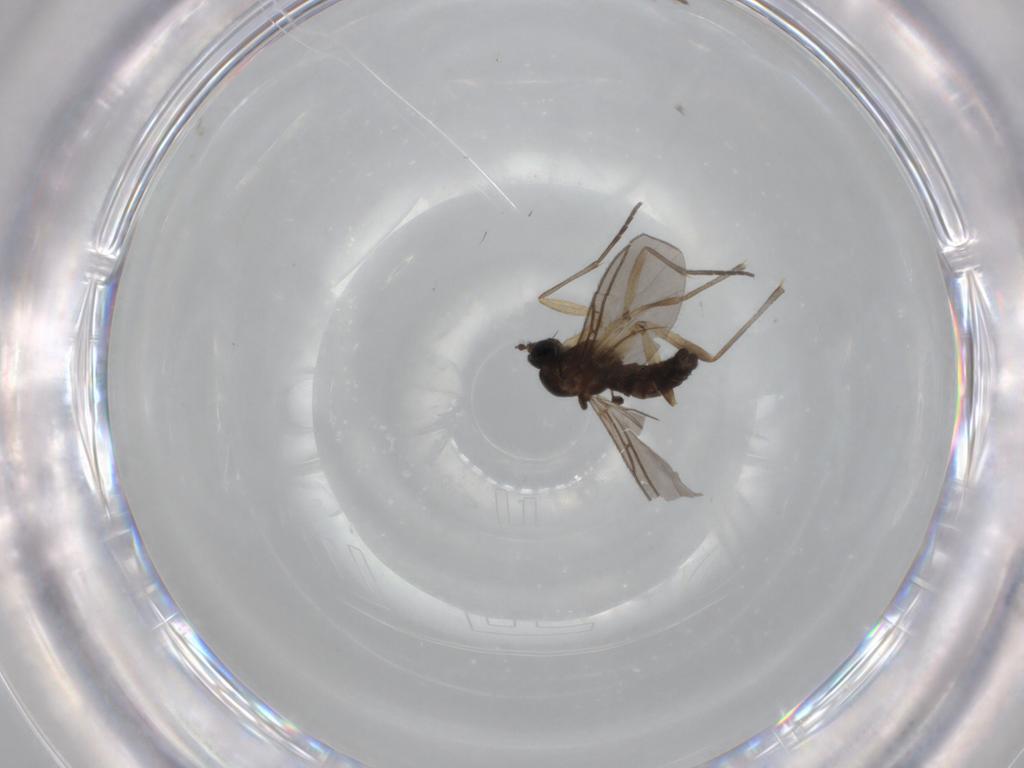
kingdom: Animalia
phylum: Arthropoda
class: Insecta
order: Diptera
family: Sciaridae
